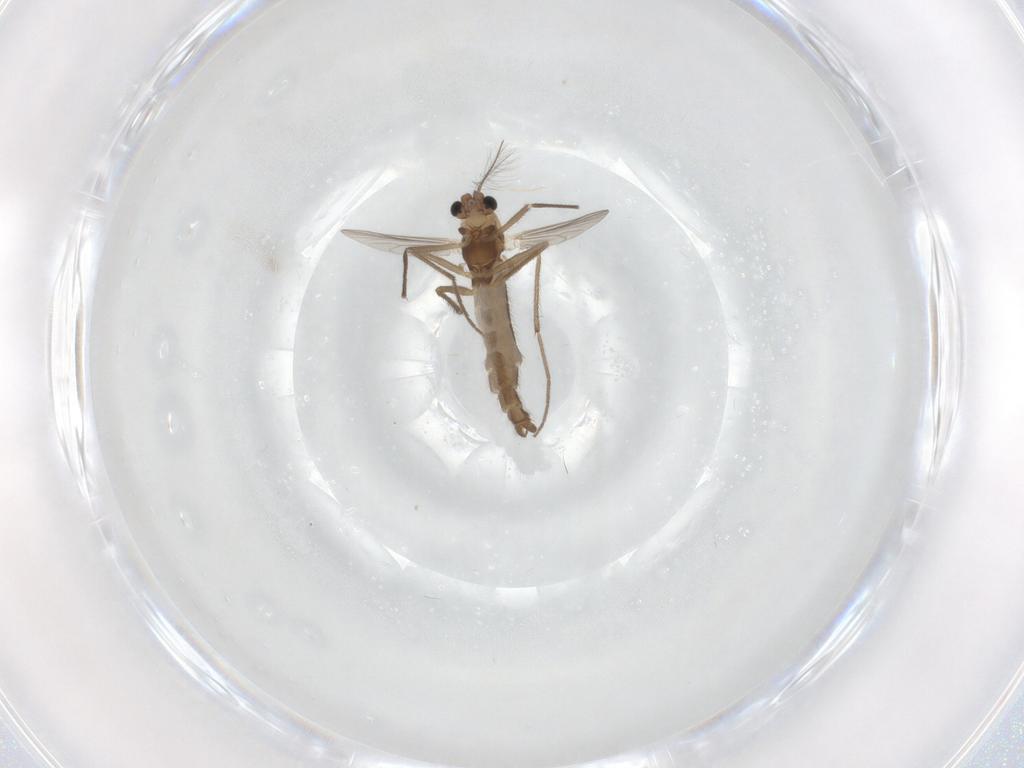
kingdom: Animalia
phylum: Arthropoda
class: Insecta
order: Diptera
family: Chironomidae
